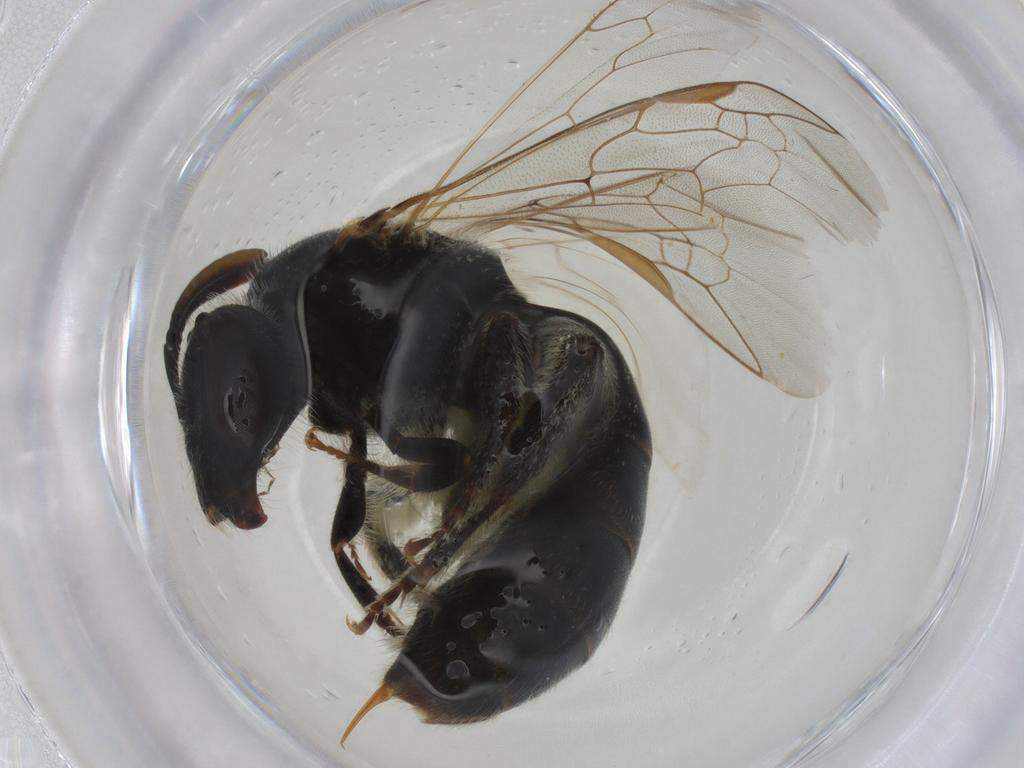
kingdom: Animalia
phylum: Arthropoda
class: Insecta
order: Hymenoptera
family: Halictidae
